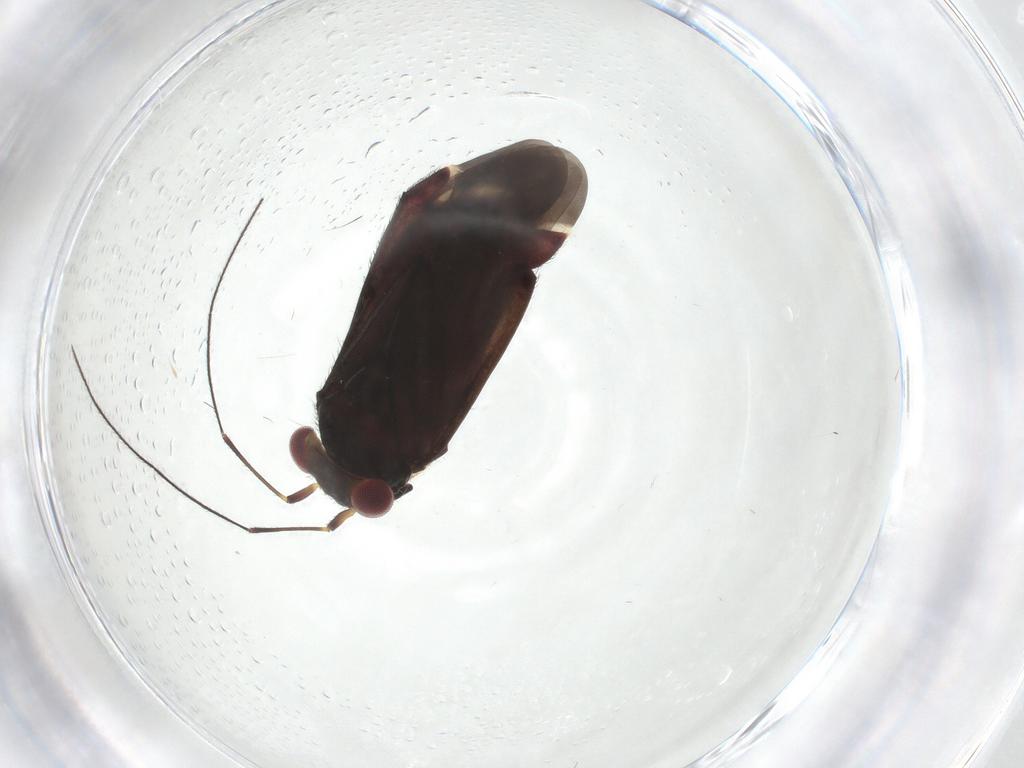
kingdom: Animalia
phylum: Arthropoda
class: Insecta
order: Hemiptera
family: Miridae
